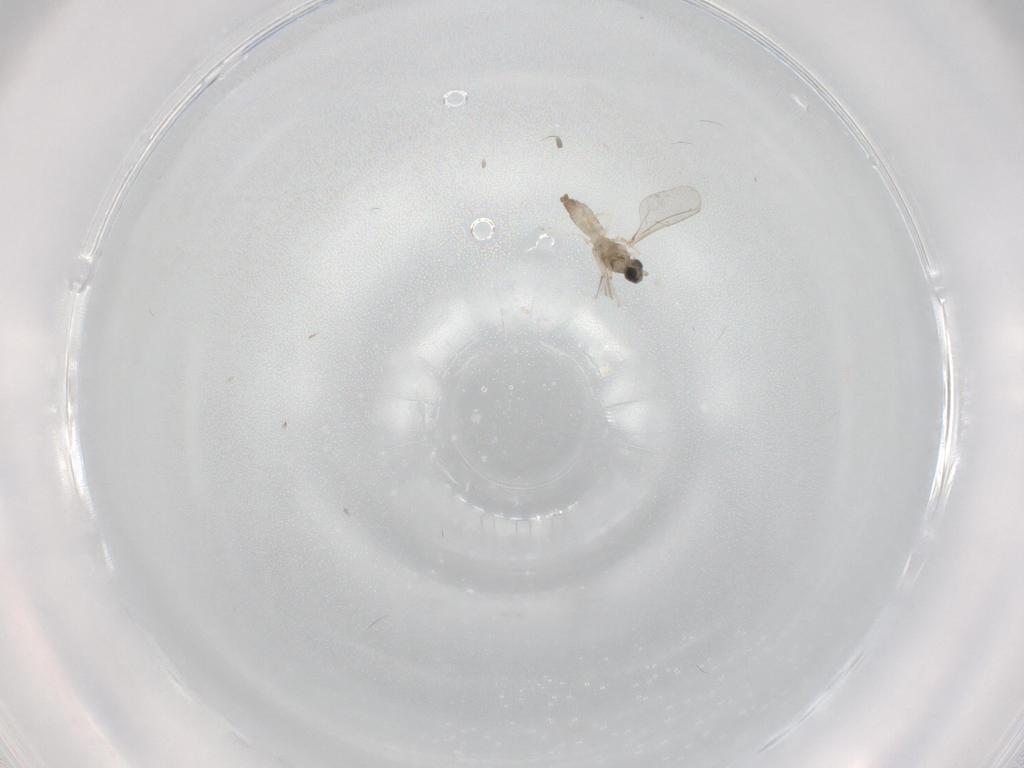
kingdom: Animalia
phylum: Arthropoda
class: Insecta
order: Diptera
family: Cecidomyiidae
